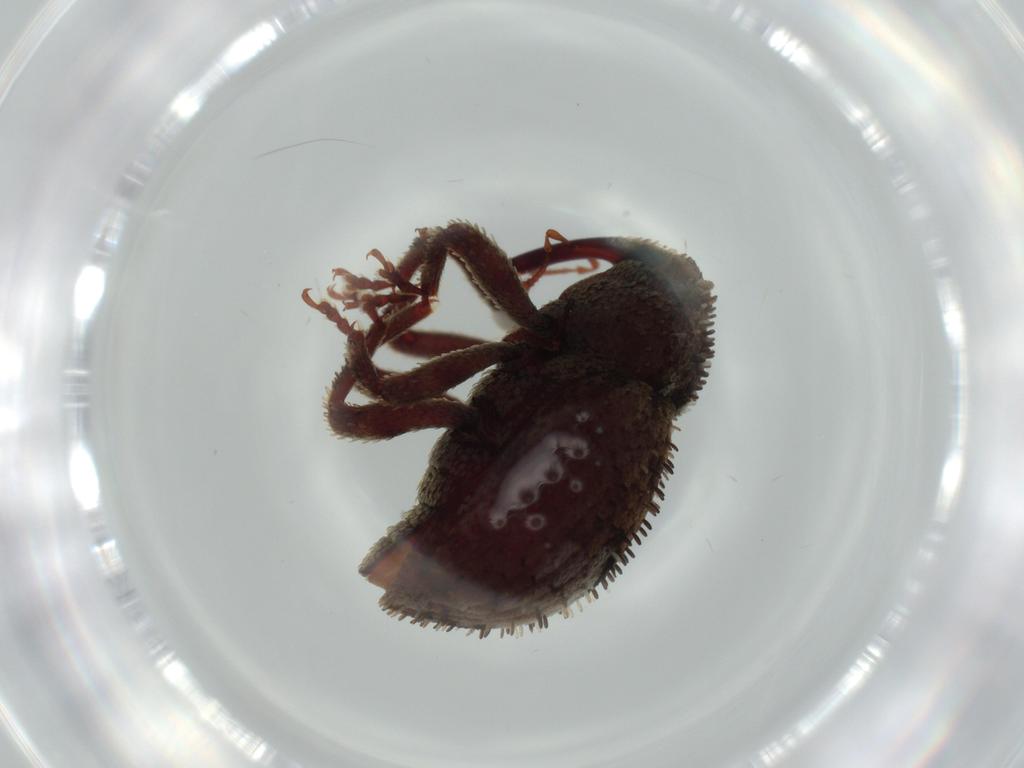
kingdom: Animalia
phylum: Arthropoda
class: Insecta
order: Coleoptera
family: Curculionidae
